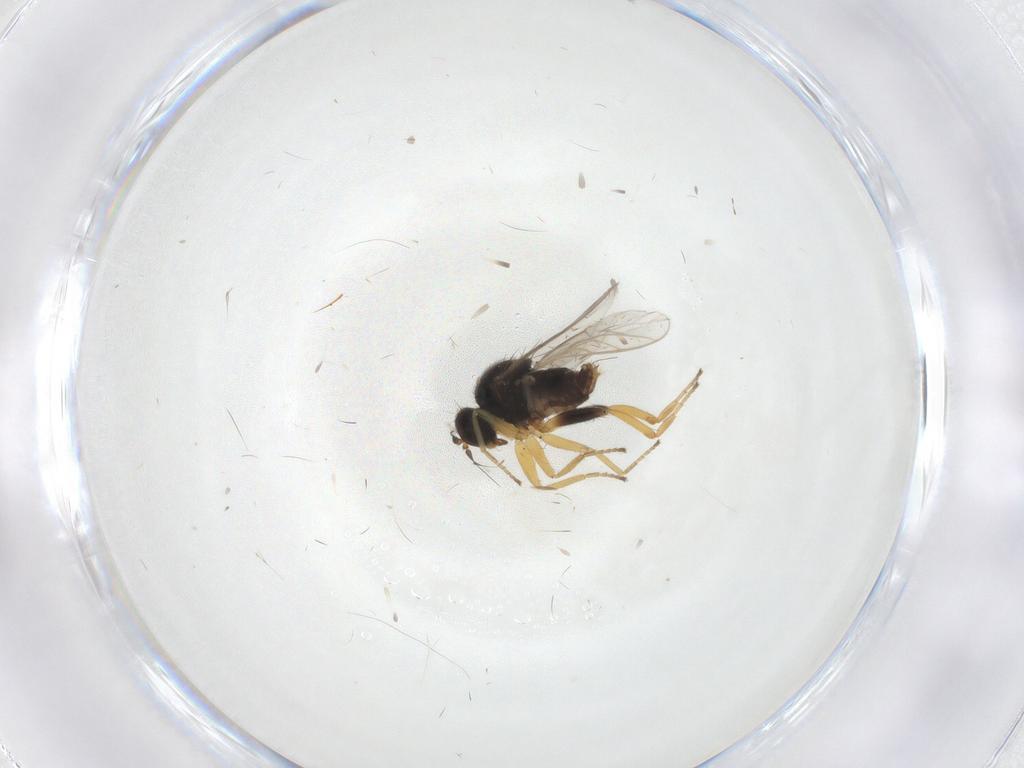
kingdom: Animalia
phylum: Arthropoda
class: Insecta
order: Diptera
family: Hybotidae
